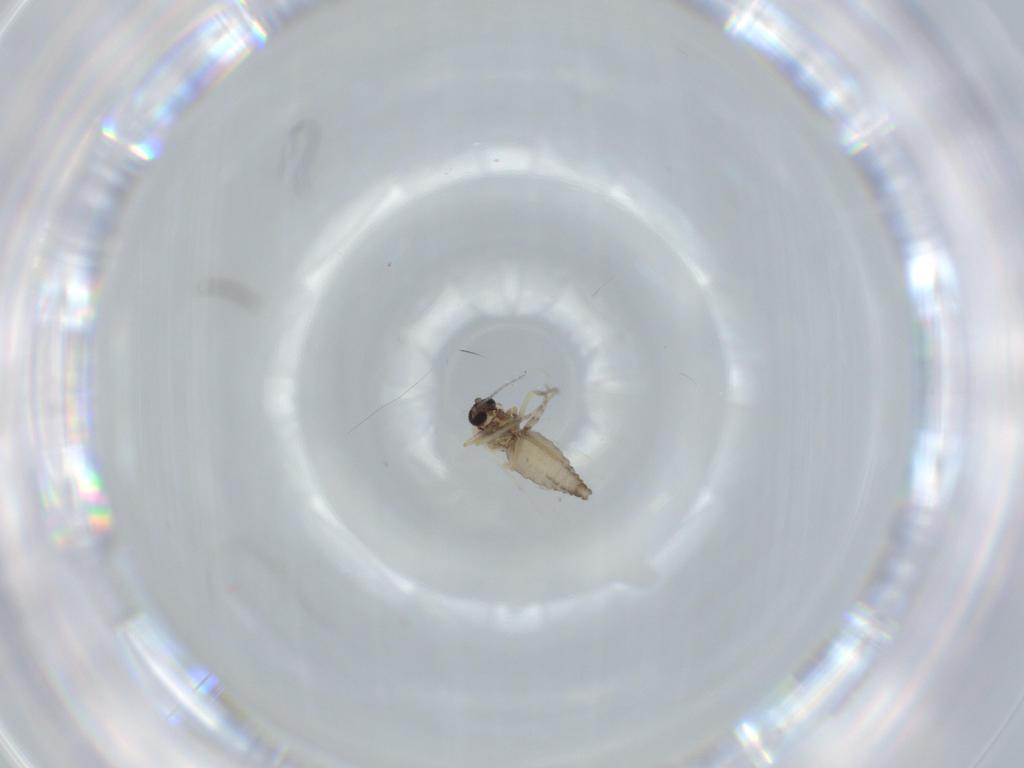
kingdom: Animalia
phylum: Arthropoda
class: Insecta
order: Diptera
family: Ceratopogonidae
